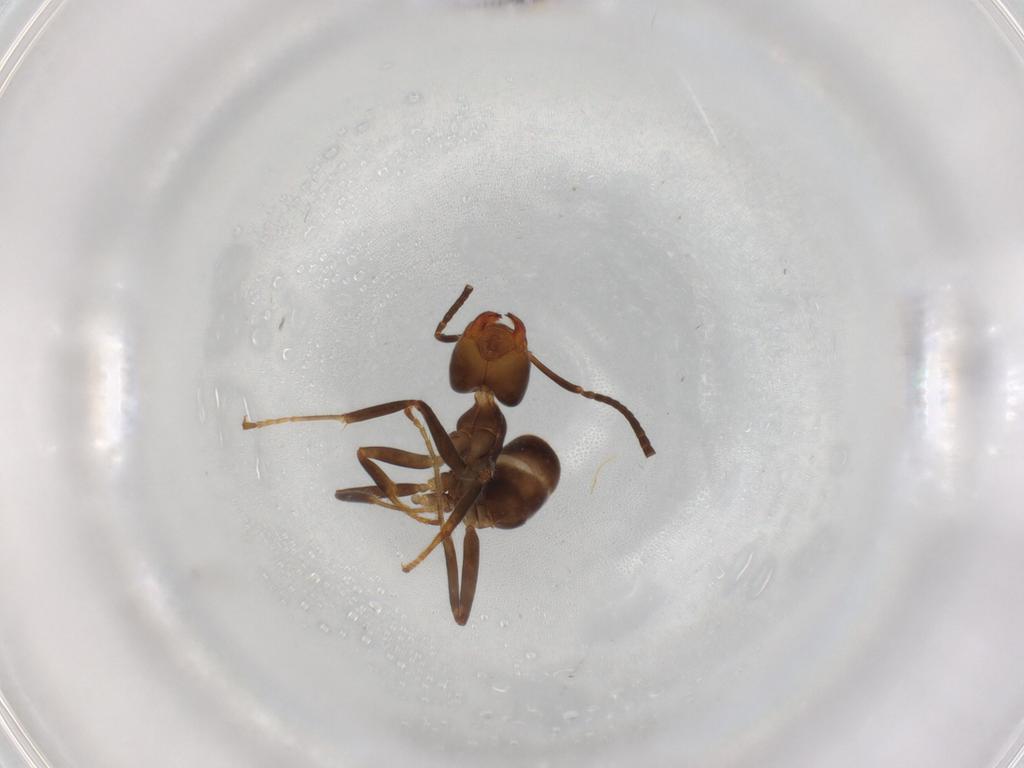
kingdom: Animalia
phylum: Arthropoda
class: Insecta
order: Hymenoptera
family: Formicidae
